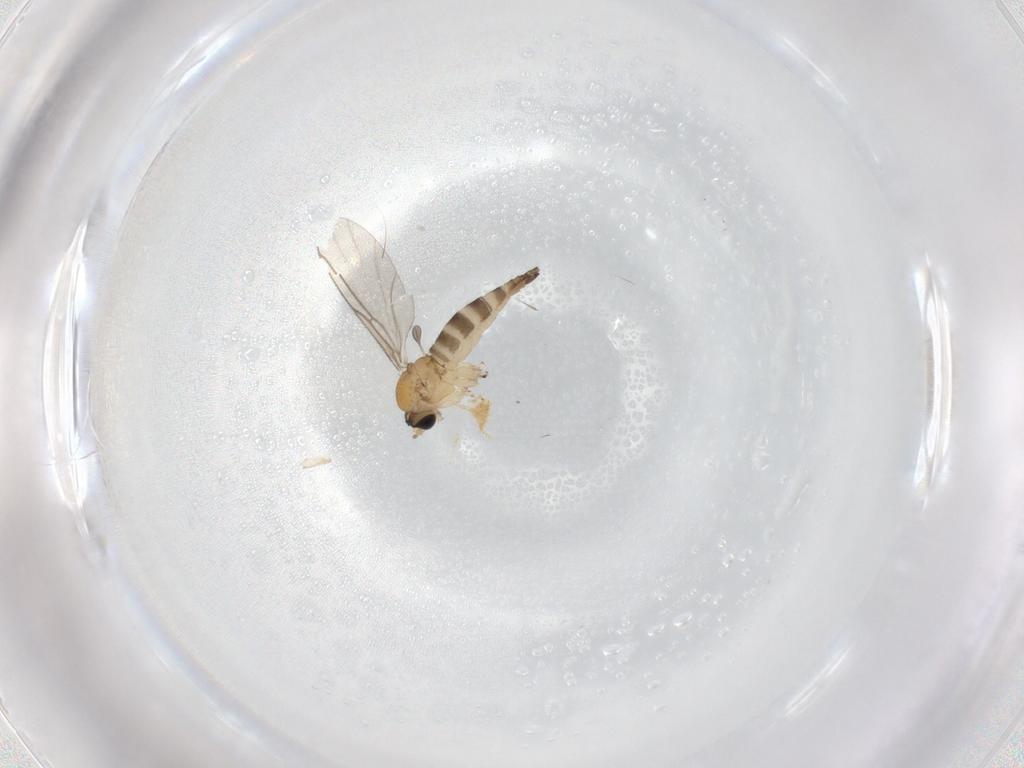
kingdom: Animalia
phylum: Arthropoda
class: Insecta
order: Diptera
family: Sciaridae
